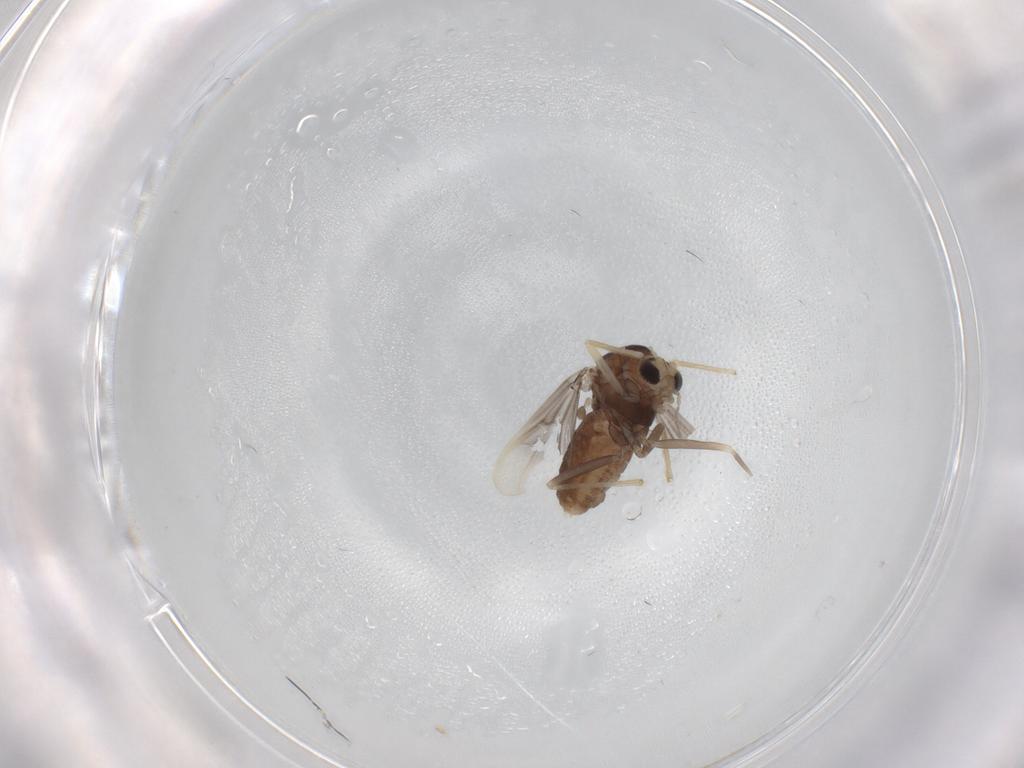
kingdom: Animalia
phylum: Arthropoda
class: Insecta
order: Diptera
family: Chironomidae
